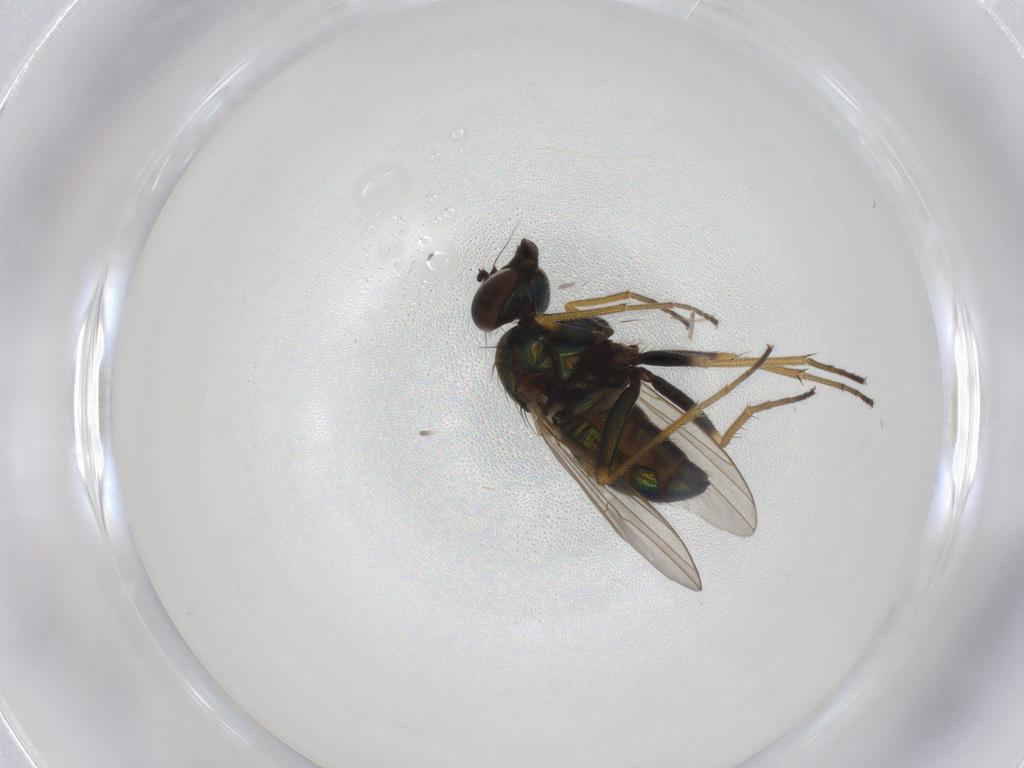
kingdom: Animalia
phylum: Arthropoda
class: Insecta
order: Diptera
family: Dolichopodidae
